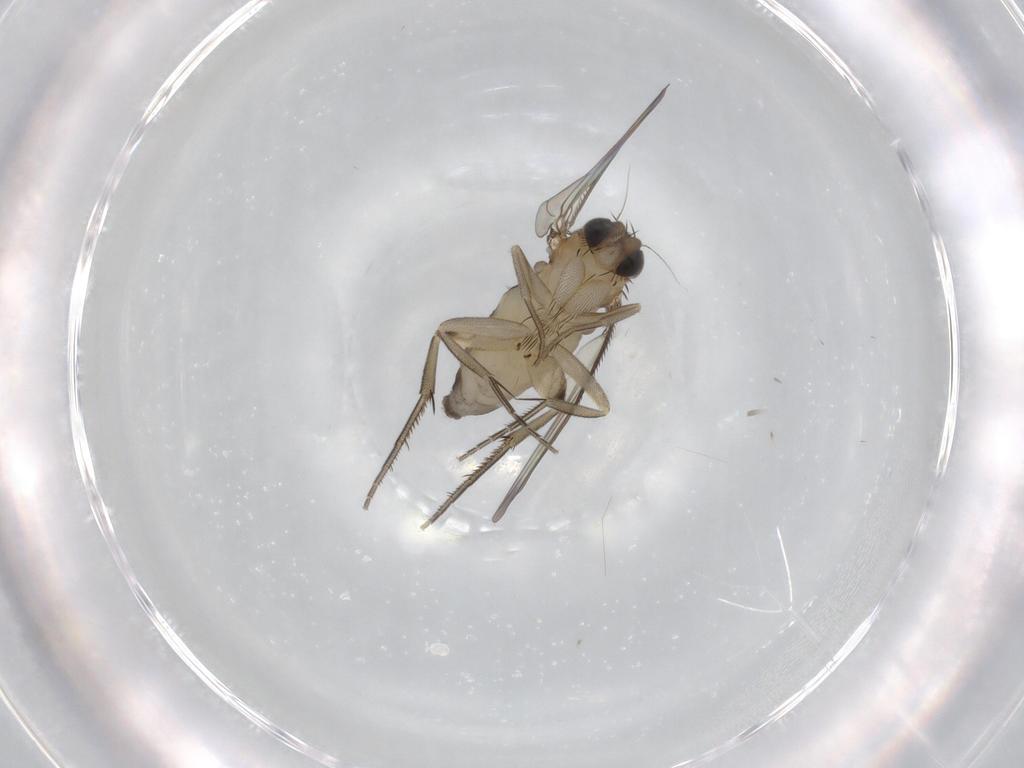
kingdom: Animalia
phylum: Arthropoda
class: Insecta
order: Diptera
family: Phoridae
